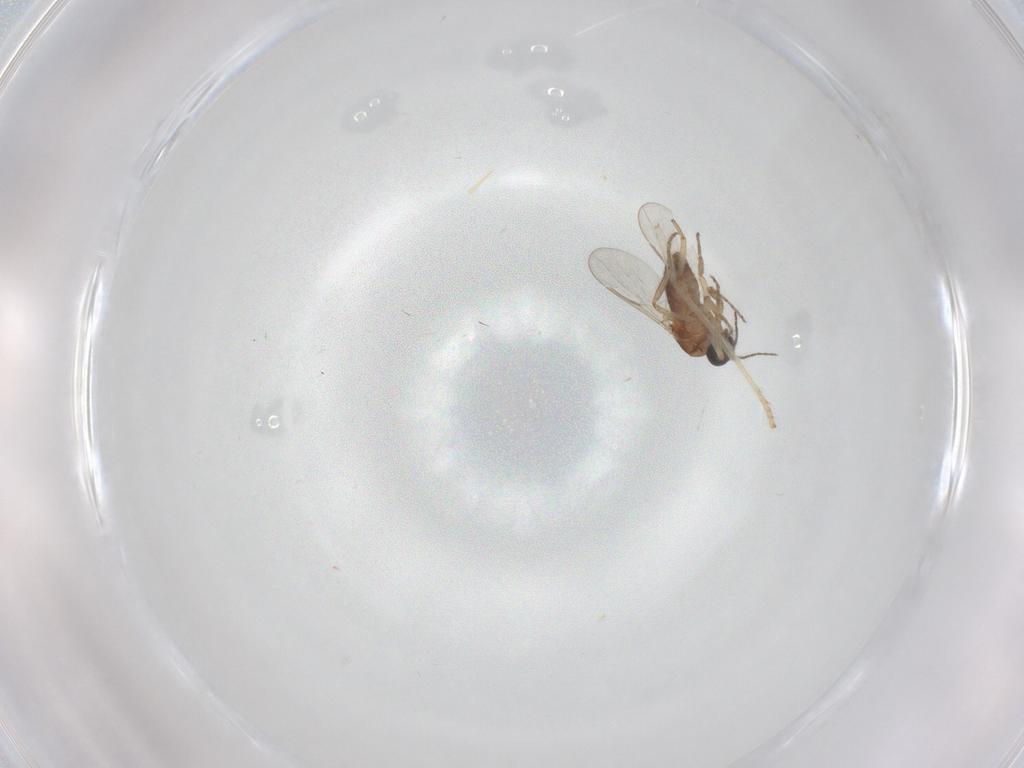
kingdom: Animalia
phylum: Arthropoda
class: Insecta
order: Diptera
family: Psychodidae
